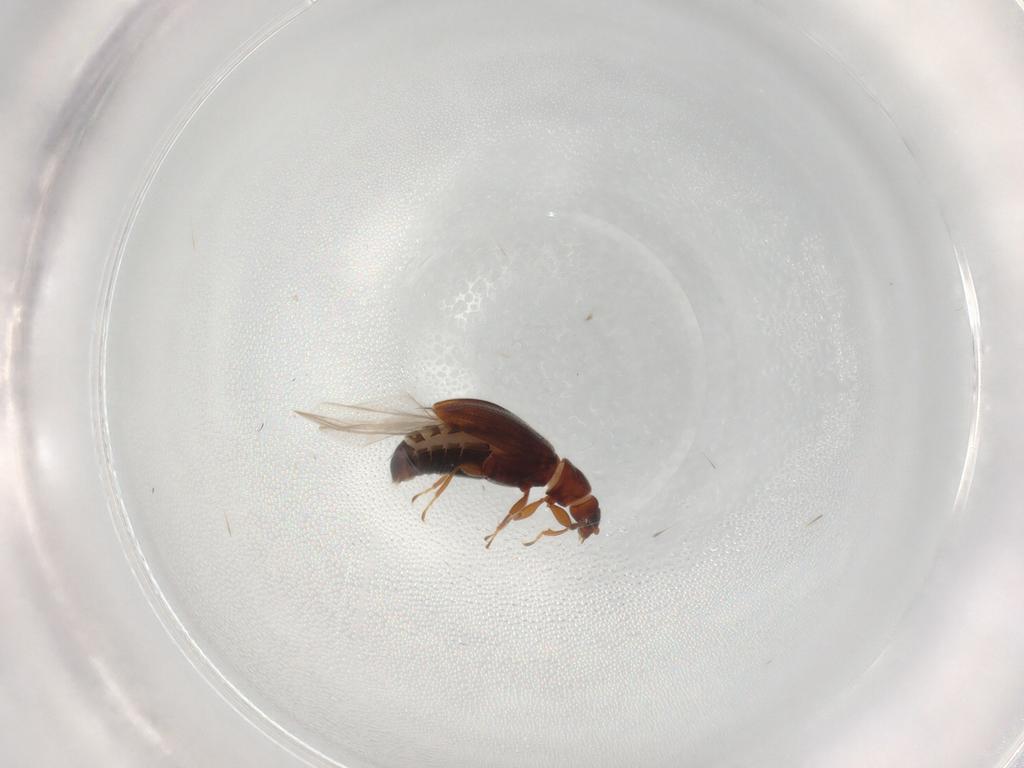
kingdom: Animalia
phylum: Arthropoda
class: Insecta
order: Coleoptera
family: Latridiidae
